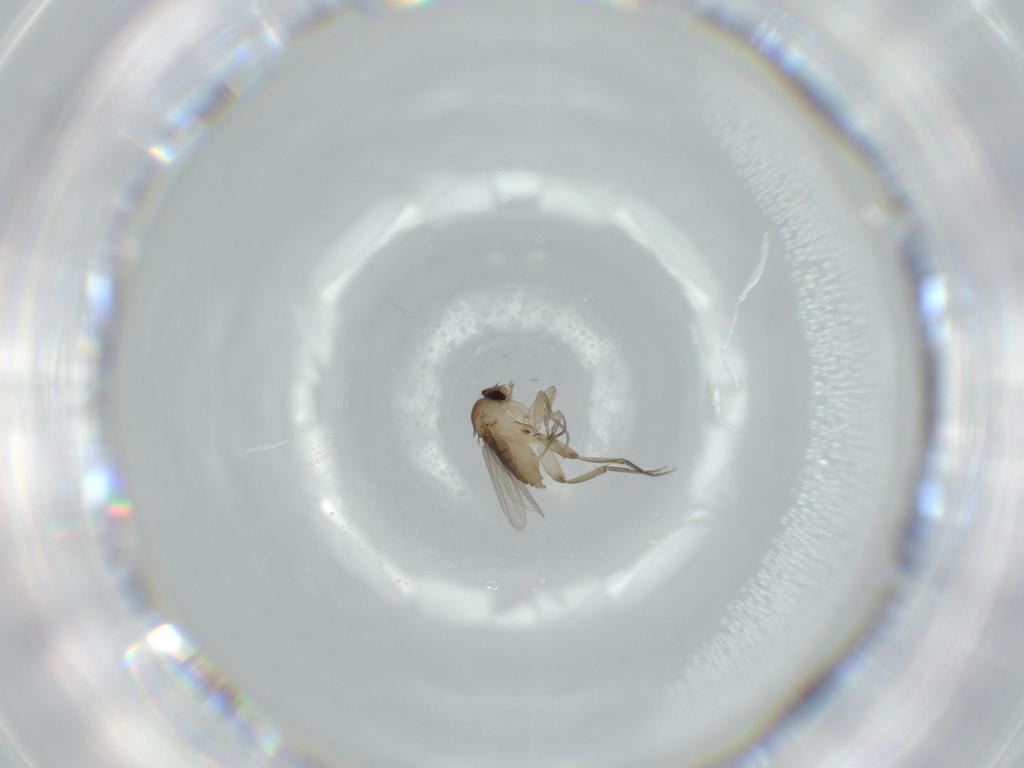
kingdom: Animalia
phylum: Arthropoda
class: Insecta
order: Diptera
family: Phoridae
